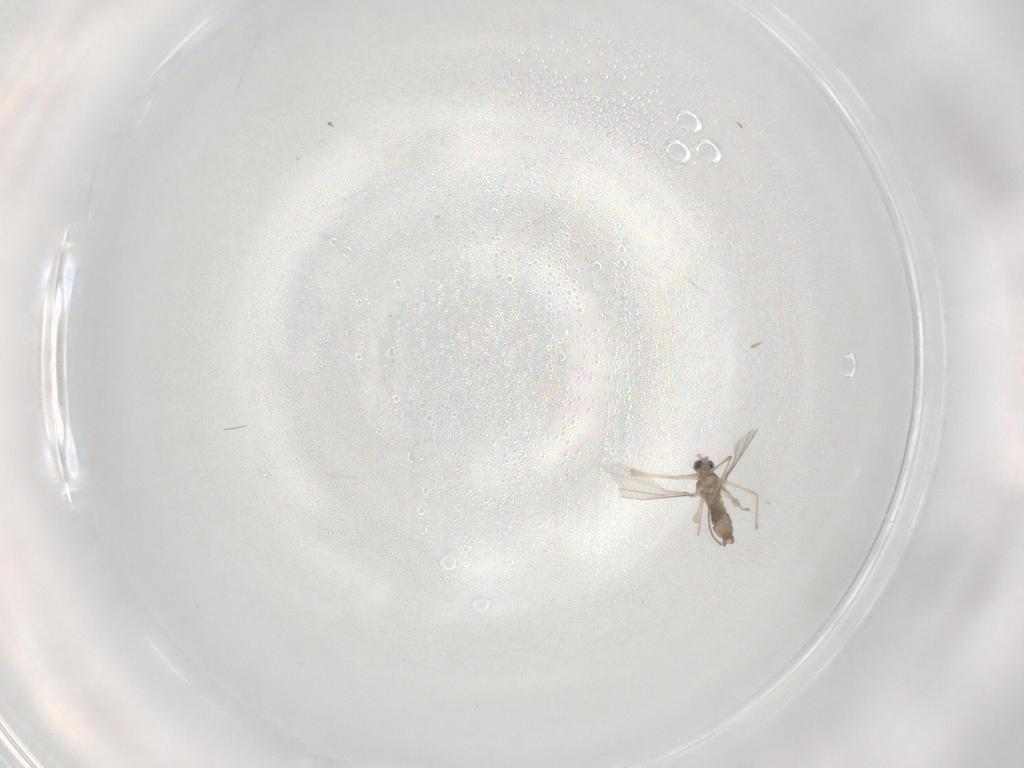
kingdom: Animalia
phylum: Arthropoda
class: Insecta
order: Diptera
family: Cecidomyiidae
